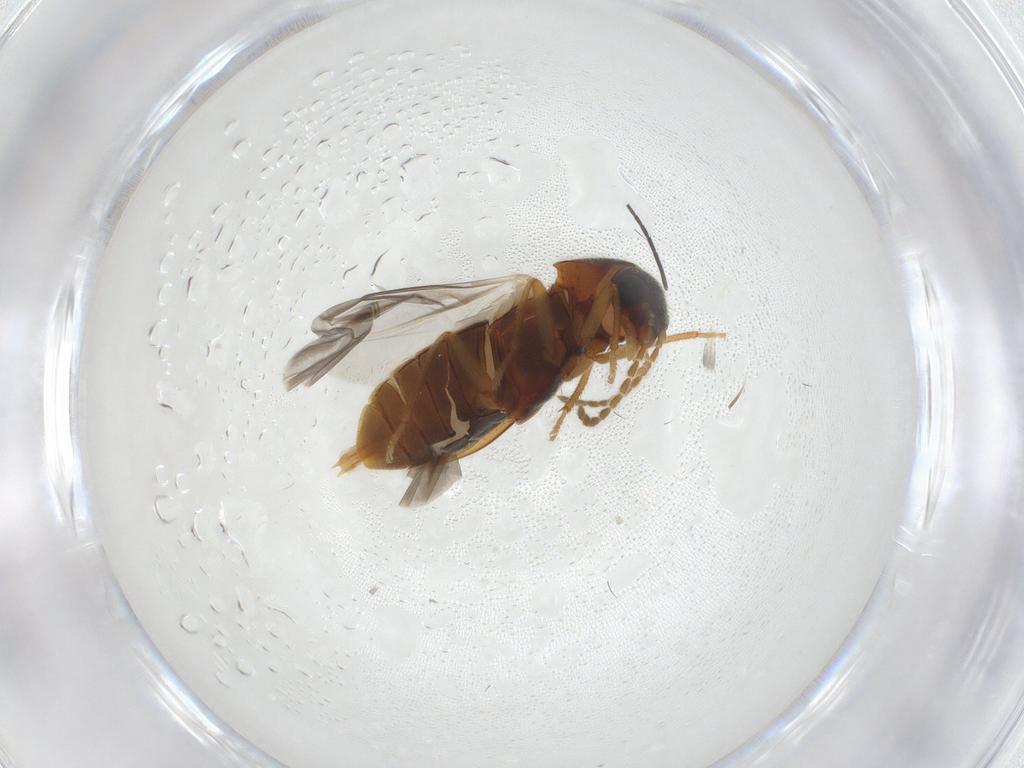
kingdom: Animalia
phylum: Arthropoda
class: Insecta
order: Coleoptera
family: Ptilodactylidae
